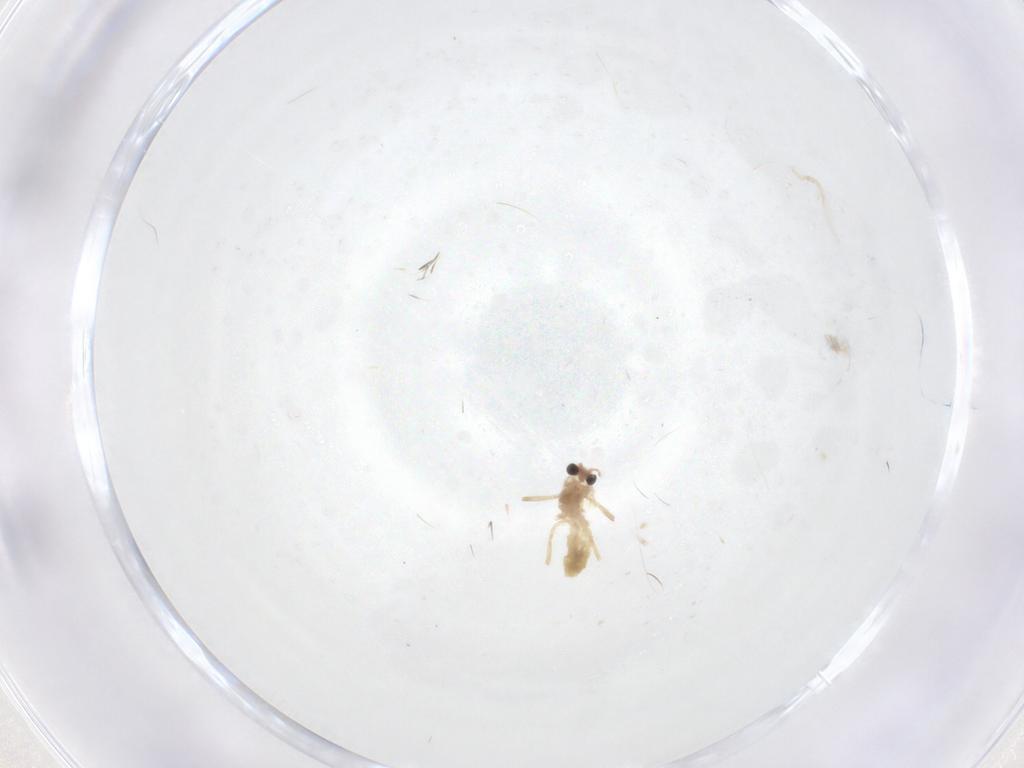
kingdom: Animalia
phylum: Arthropoda
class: Insecta
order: Diptera
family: Chironomidae
